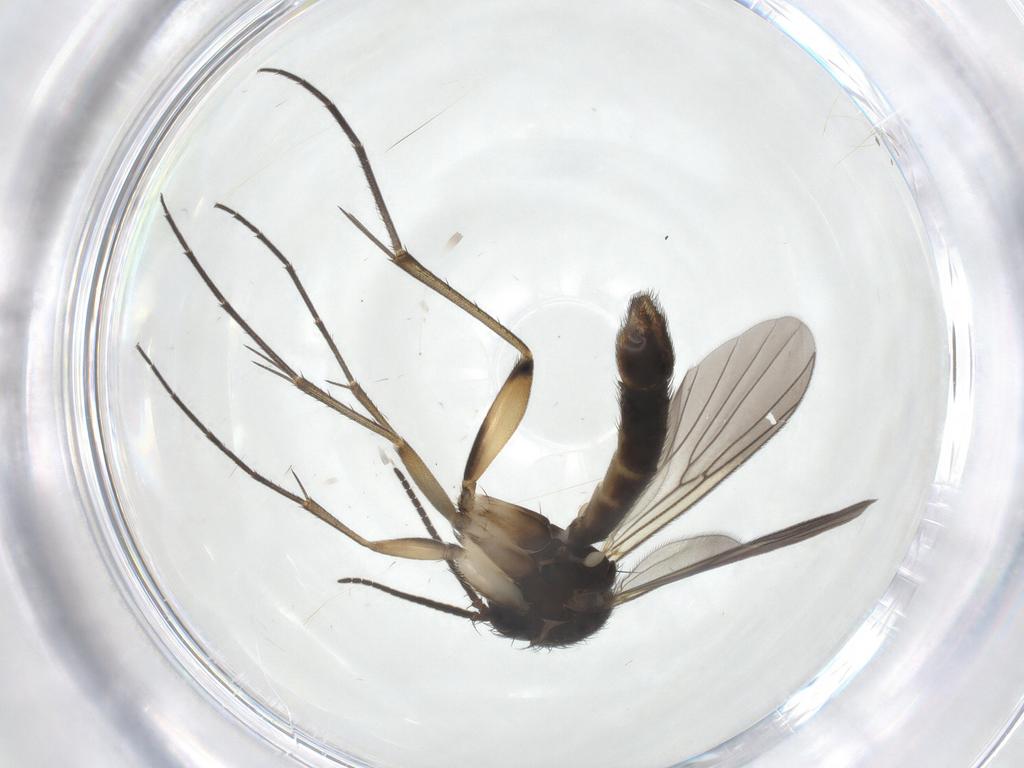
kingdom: Animalia
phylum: Arthropoda
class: Insecta
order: Diptera
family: Mycetophilidae
